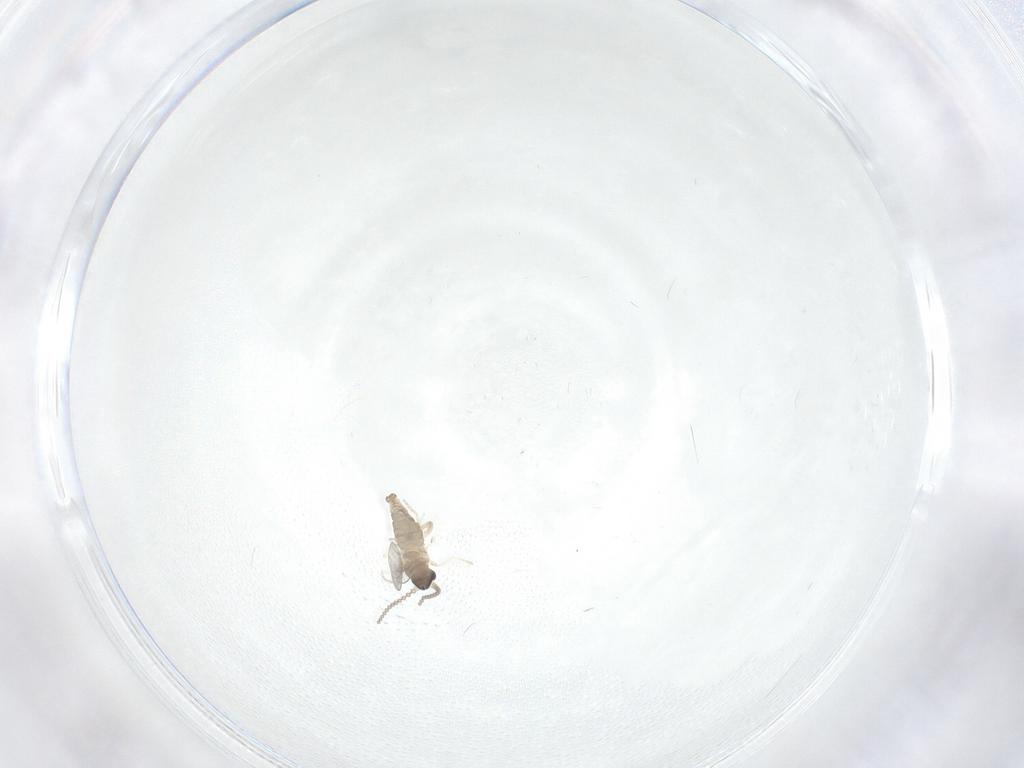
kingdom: Animalia
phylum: Arthropoda
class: Insecta
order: Diptera
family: Cecidomyiidae
